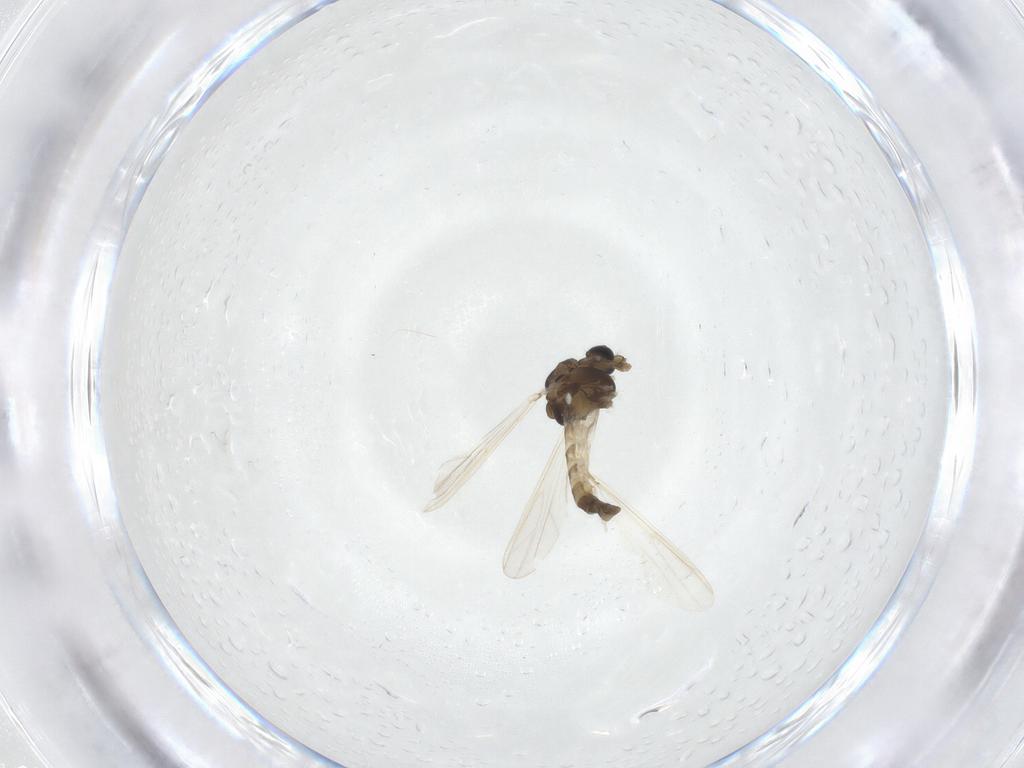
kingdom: Animalia
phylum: Arthropoda
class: Insecta
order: Diptera
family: Chironomidae
